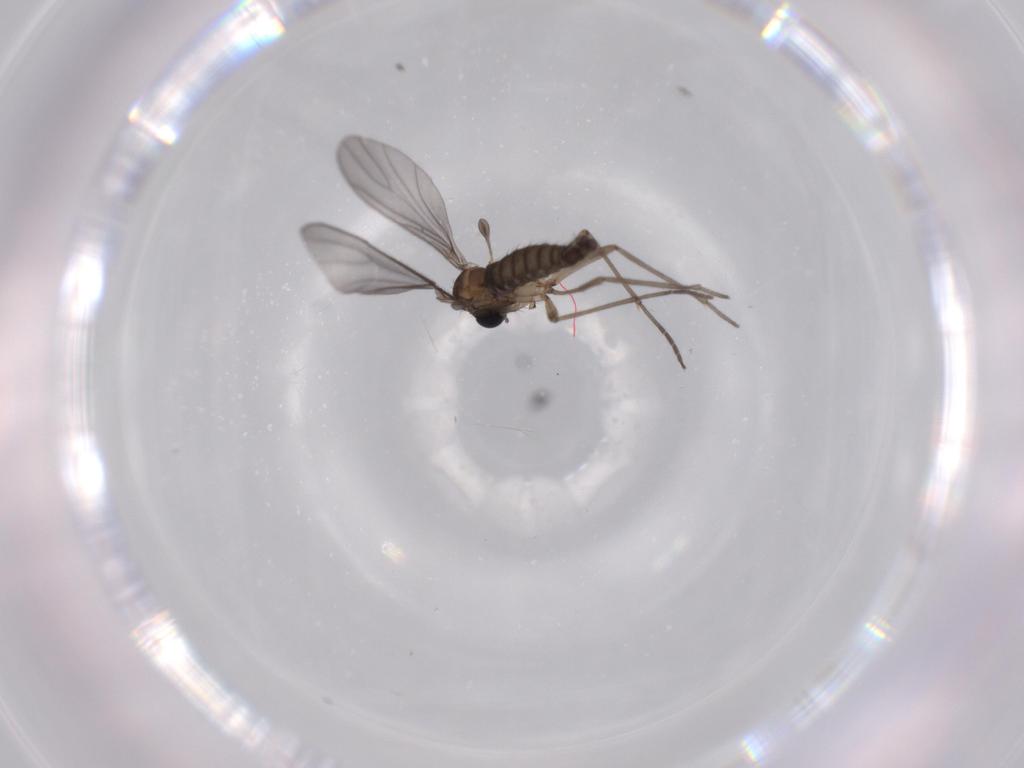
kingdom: Animalia
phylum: Arthropoda
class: Insecta
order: Diptera
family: Sciaridae
